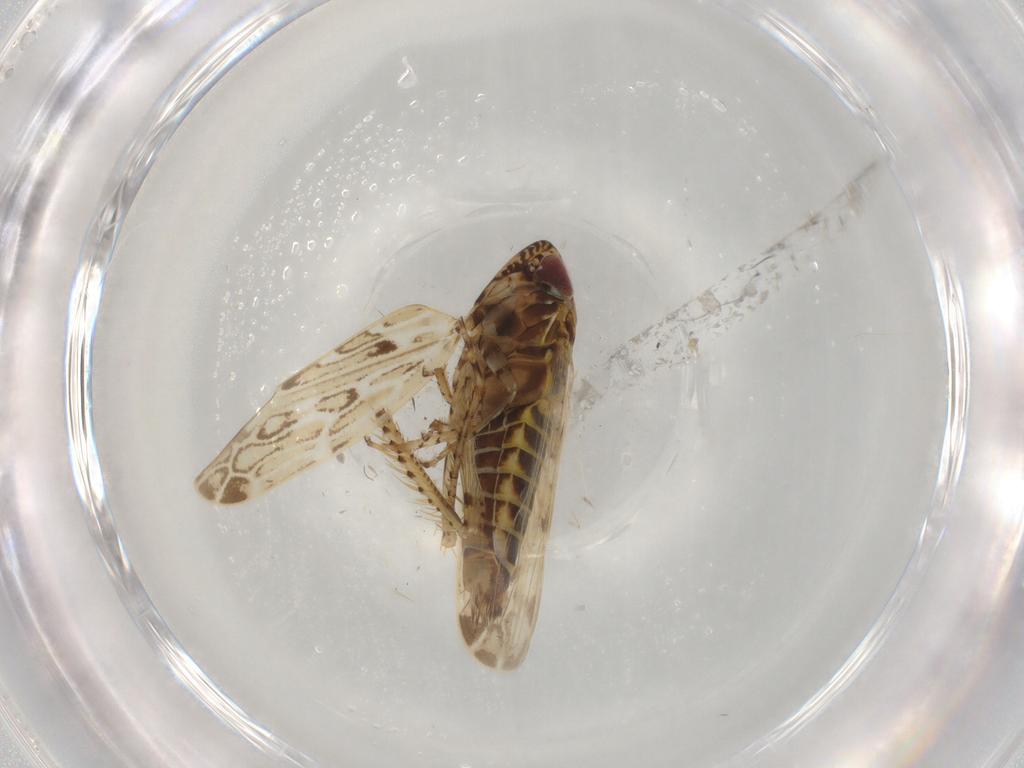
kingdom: Animalia
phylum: Arthropoda
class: Insecta
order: Hemiptera
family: Cicadellidae
